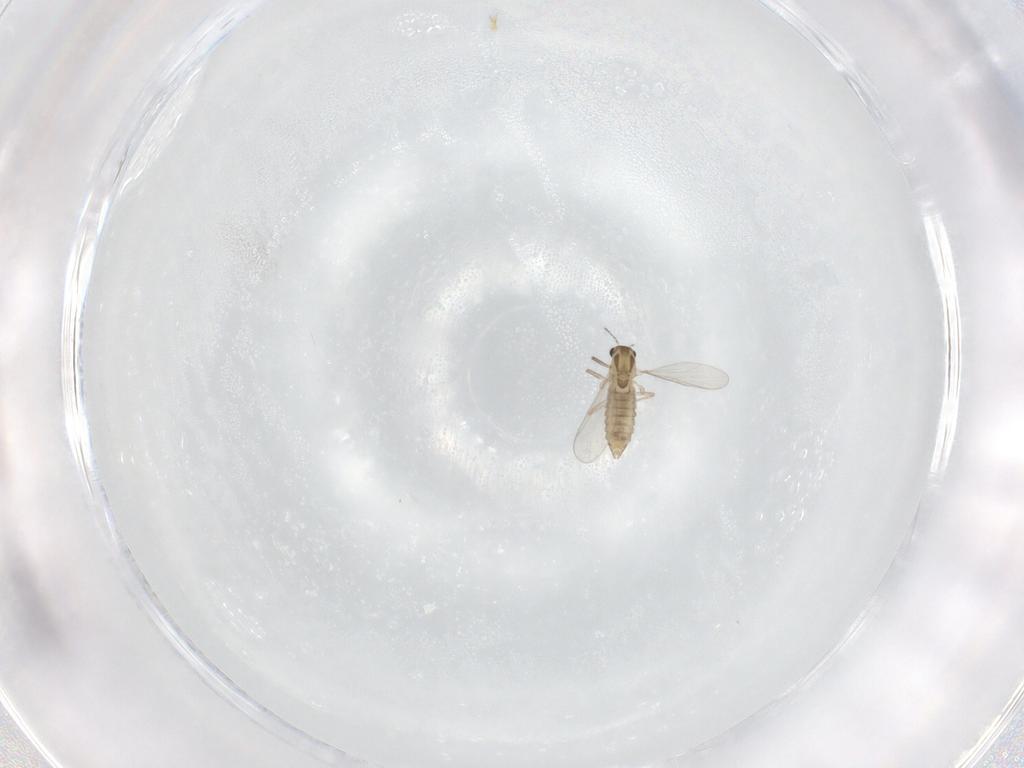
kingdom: Animalia
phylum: Arthropoda
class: Insecta
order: Diptera
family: Chironomidae
